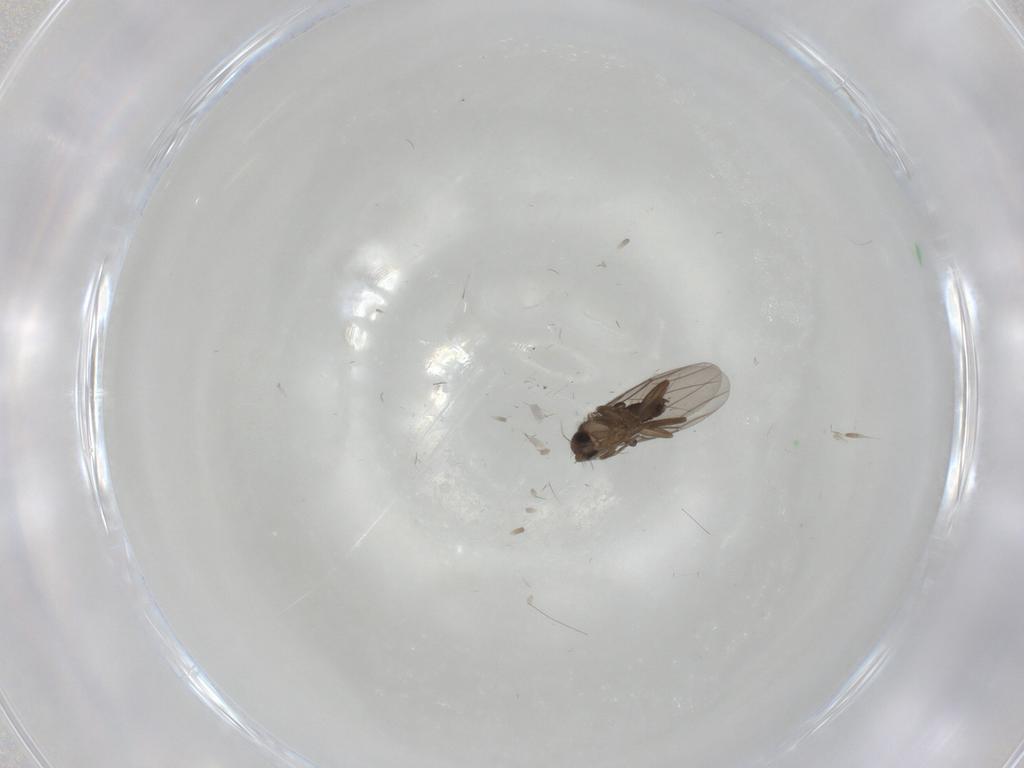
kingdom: Animalia
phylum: Arthropoda
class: Insecta
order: Diptera
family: Phoridae
